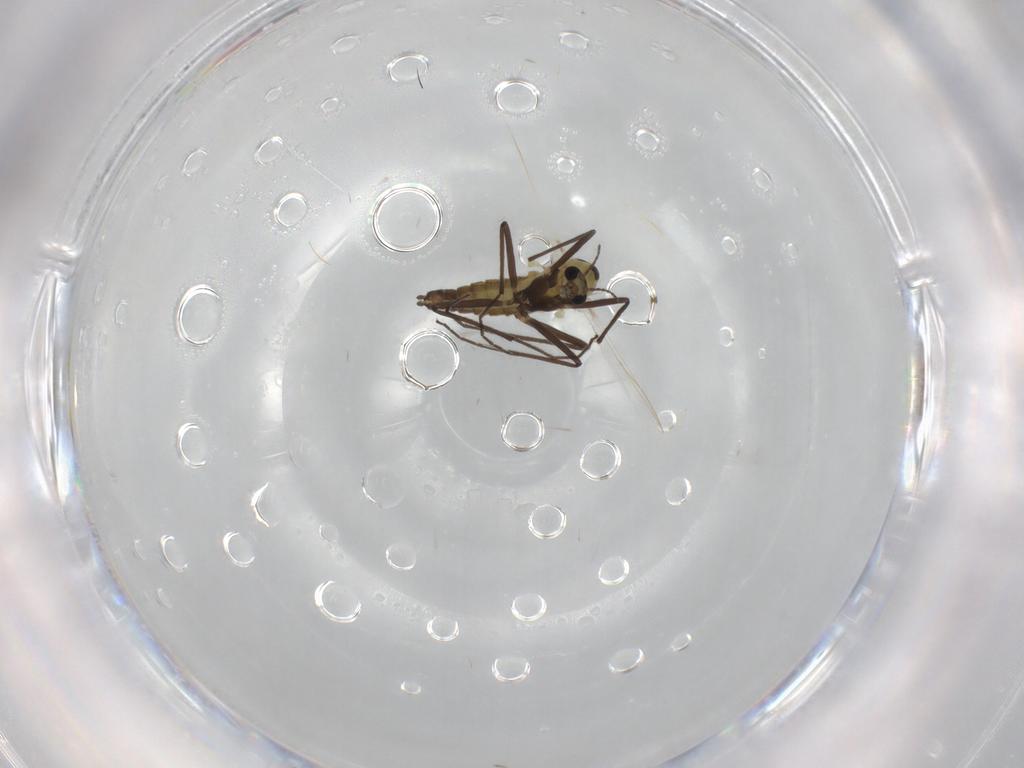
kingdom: Animalia
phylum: Arthropoda
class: Insecta
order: Diptera
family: Chironomidae
